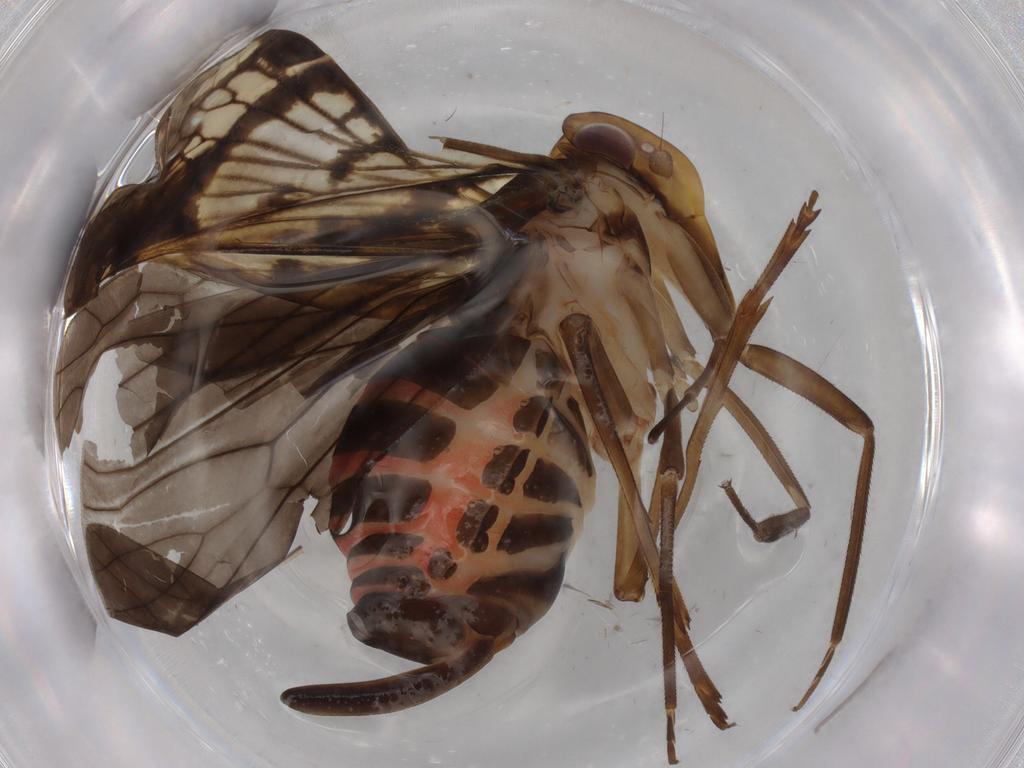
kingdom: Animalia
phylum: Arthropoda
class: Insecta
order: Hemiptera
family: Cixiidae
